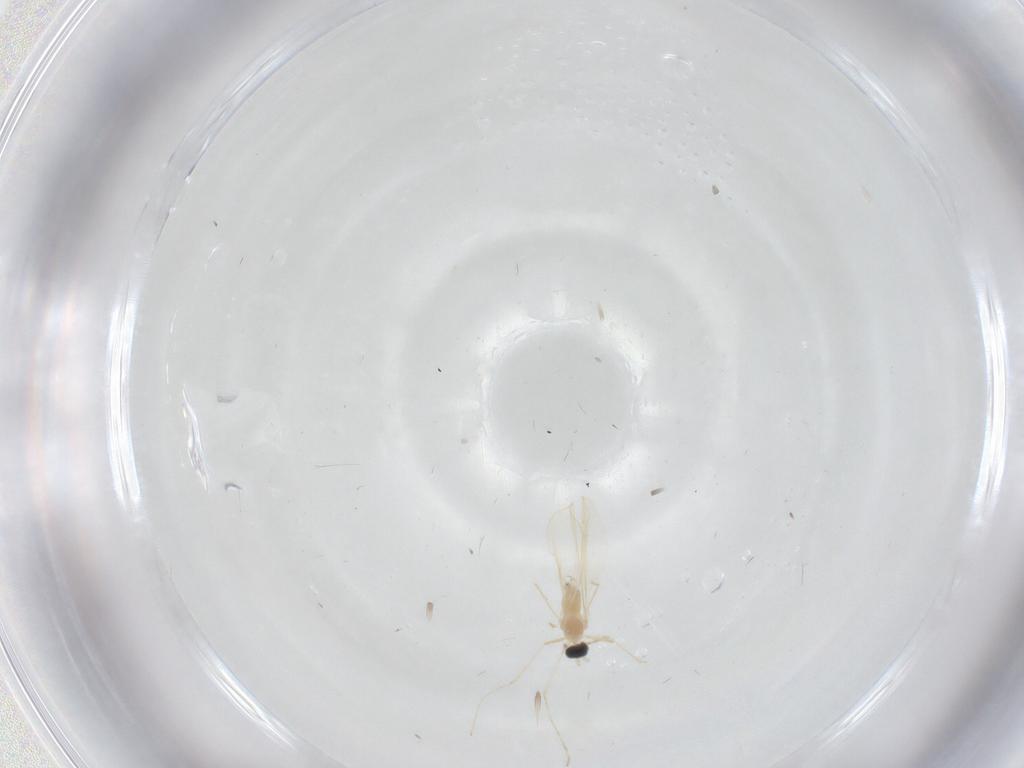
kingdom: Animalia
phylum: Arthropoda
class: Insecta
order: Diptera
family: Cecidomyiidae
